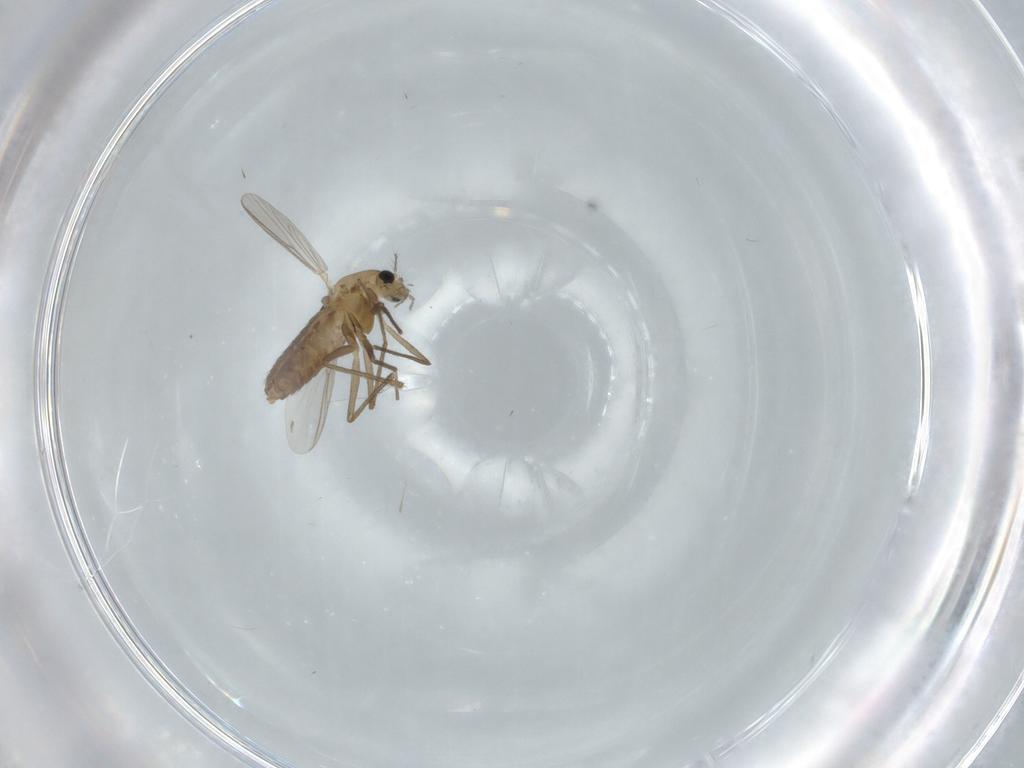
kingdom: Animalia
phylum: Arthropoda
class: Insecta
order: Diptera
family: Chironomidae
